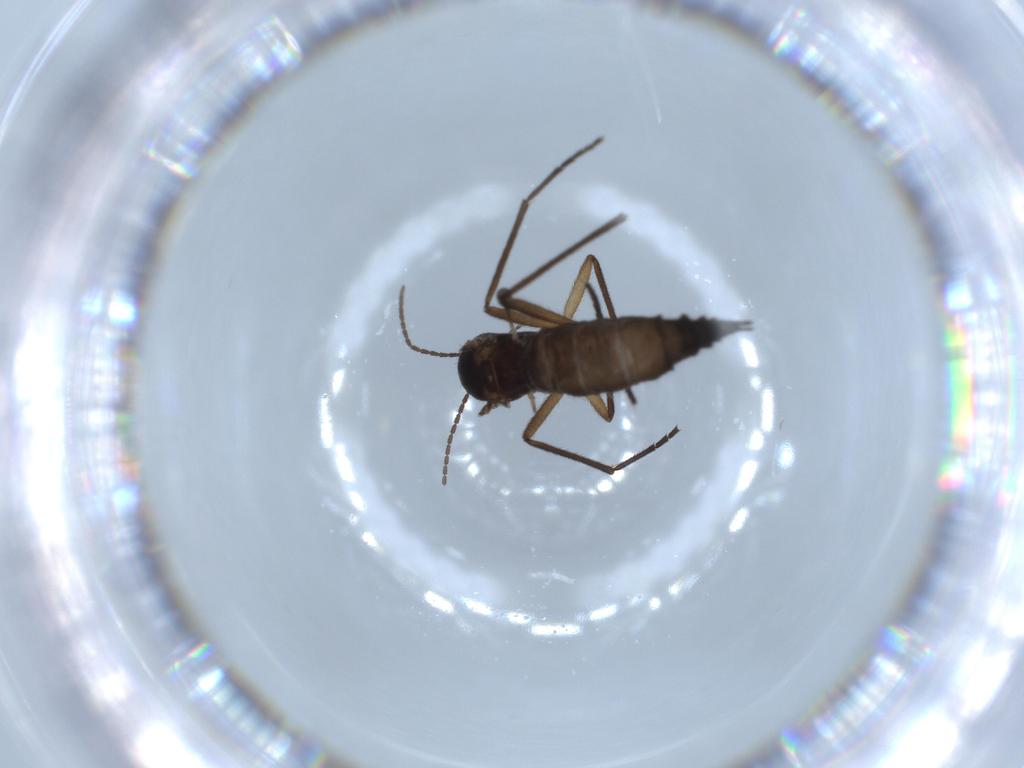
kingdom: Animalia
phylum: Arthropoda
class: Insecta
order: Diptera
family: Sciaridae
